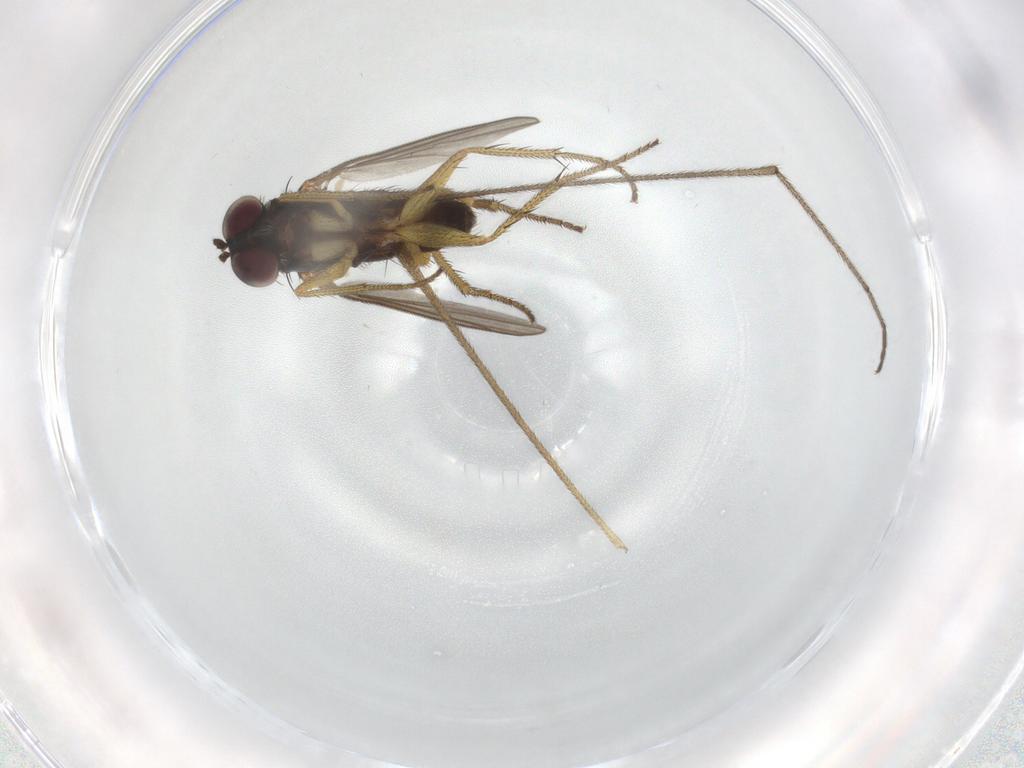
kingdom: Animalia
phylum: Arthropoda
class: Insecta
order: Diptera
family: Dolichopodidae
